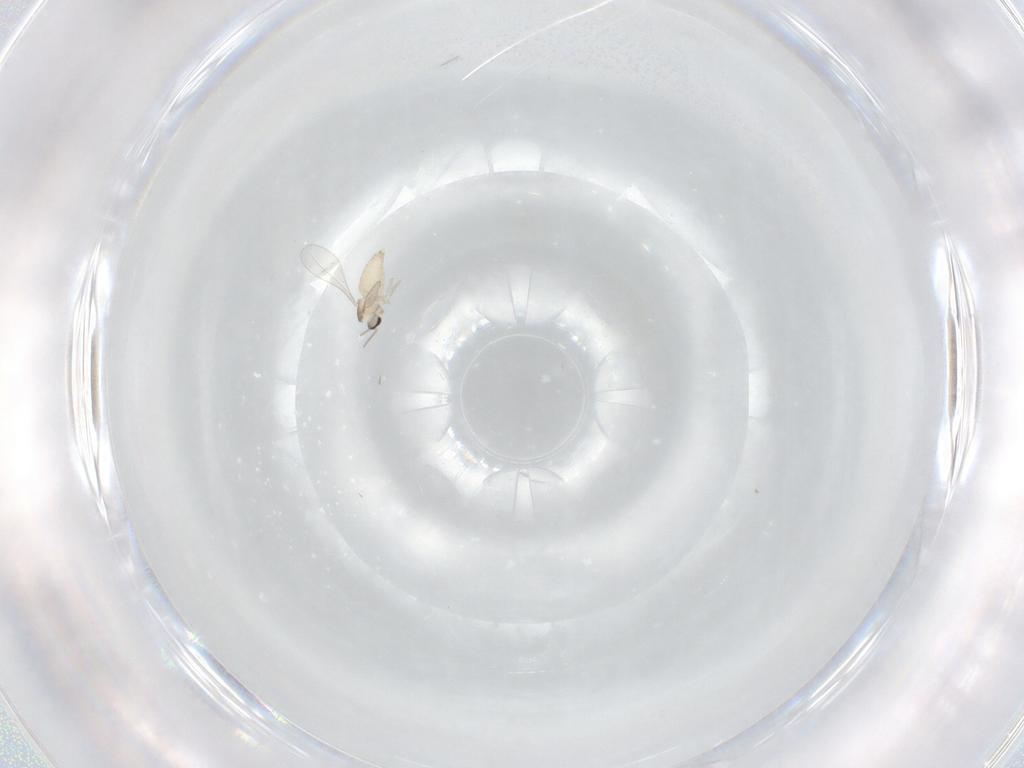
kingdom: Animalia
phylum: Arthropoda
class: Insecta
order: Diptera
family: Cecidomyiidae
